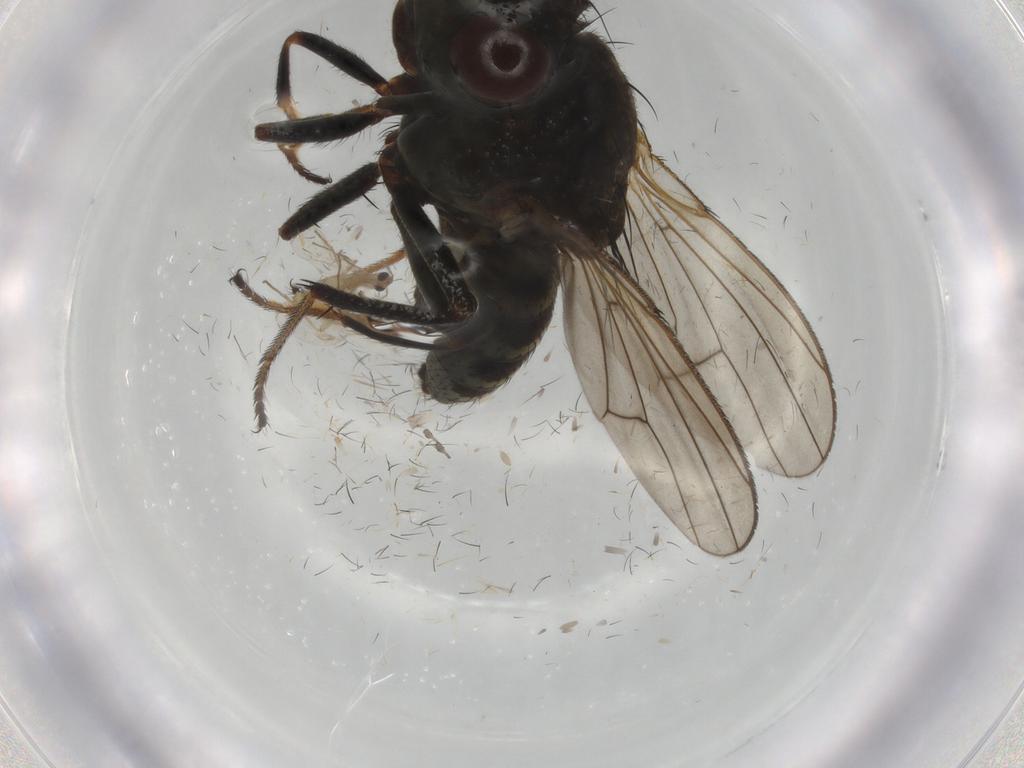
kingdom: Animalia
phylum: Arthropoda
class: Insecta
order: Diptera
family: Ephydridae
